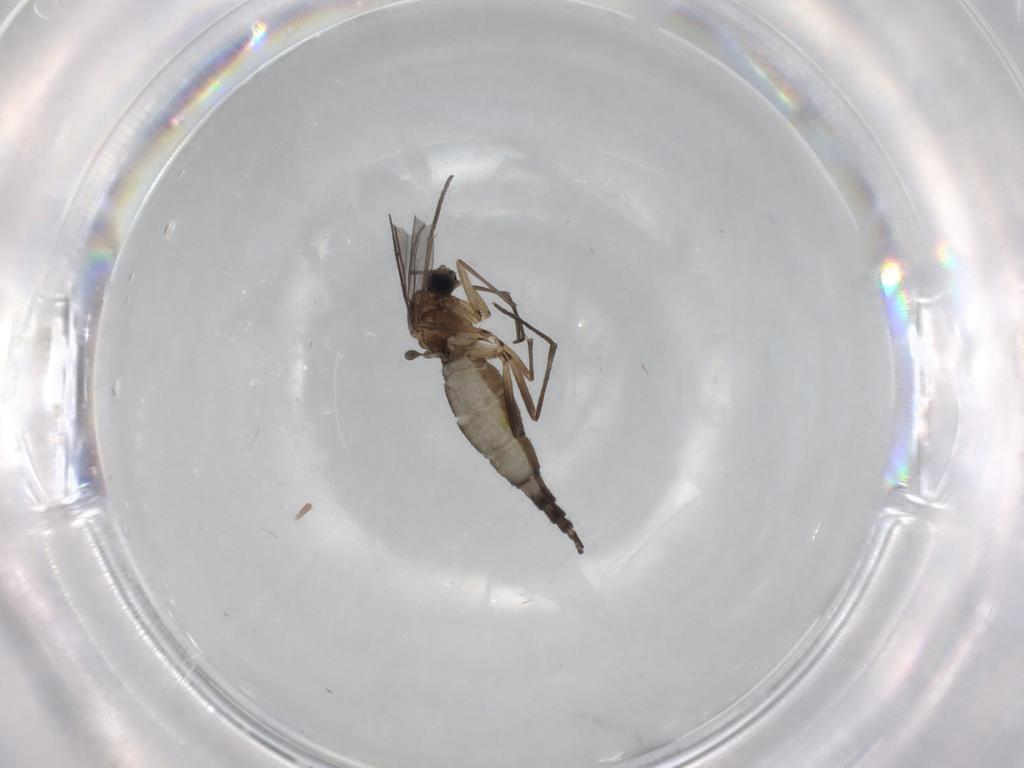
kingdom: Animalia
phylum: Arthropoda
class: Insecta
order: Diptera
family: Sciaridae
